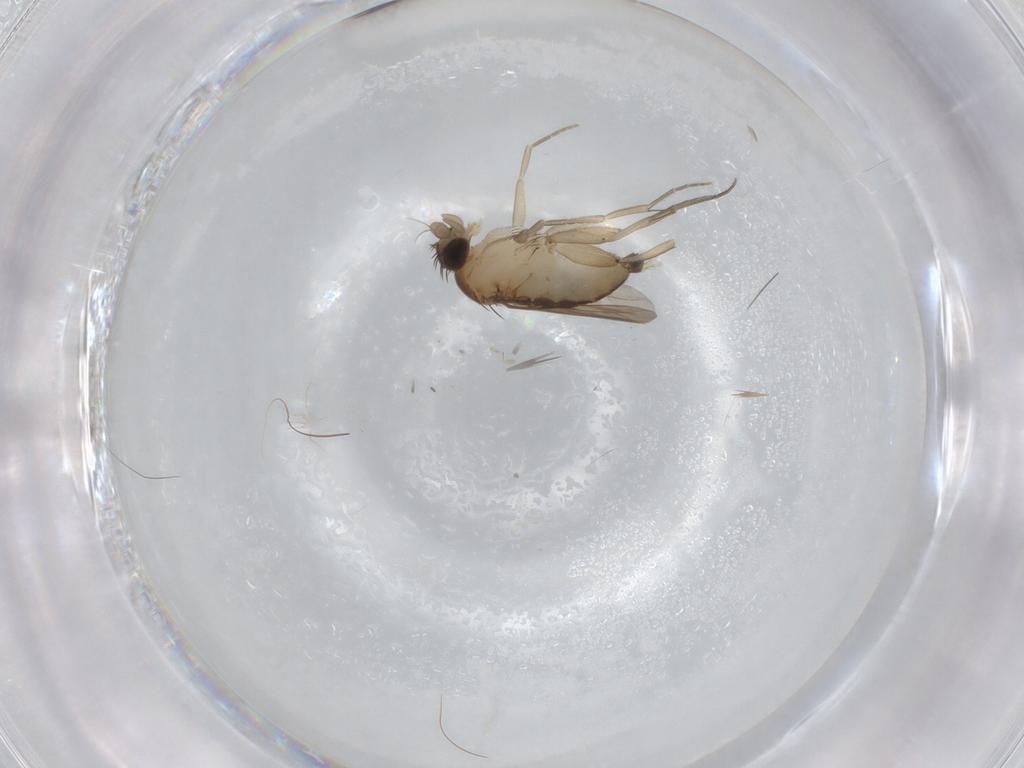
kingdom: Animalia
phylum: Arthropoda
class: Insecta
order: Diptera
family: Phoridae
